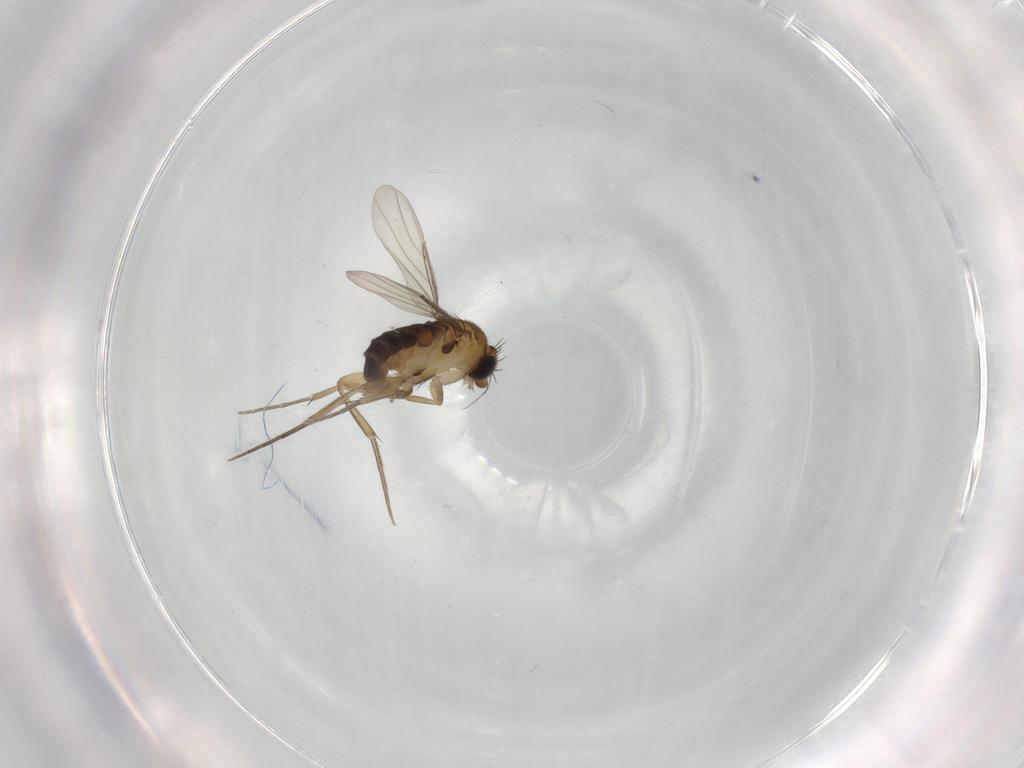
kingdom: Animalia
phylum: Arthropoda
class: Insecta
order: Diptera
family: Phoridae
